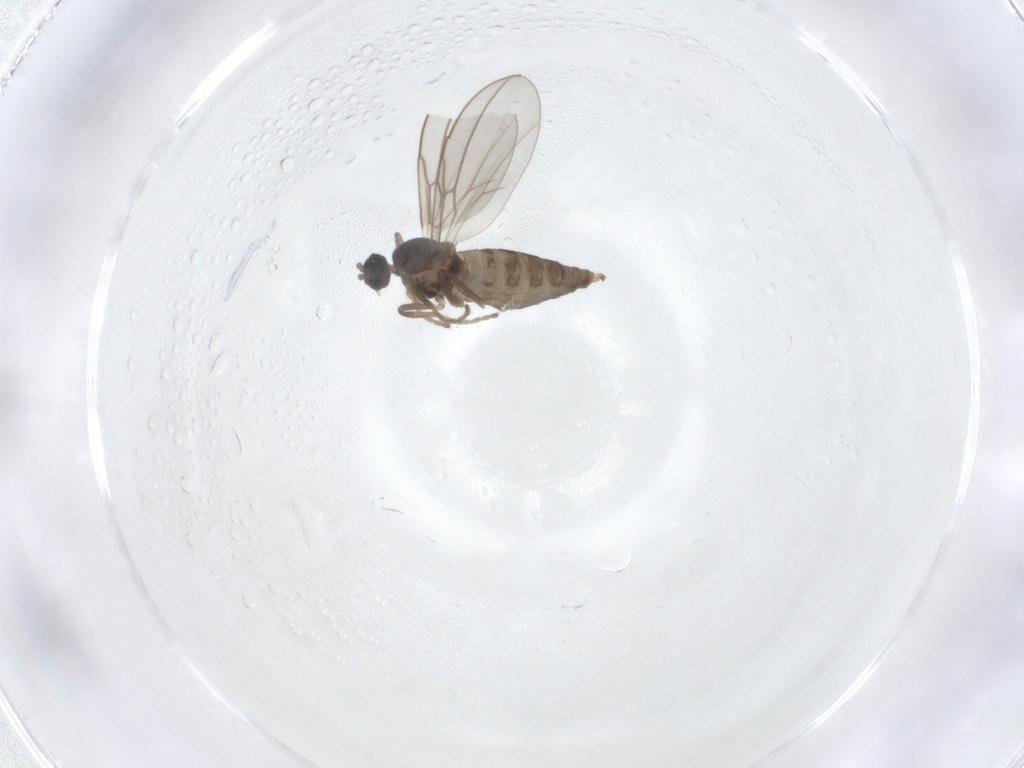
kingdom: Animalia
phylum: Arthropoda
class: Insecta
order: Diptera
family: Cecidomyiidae
